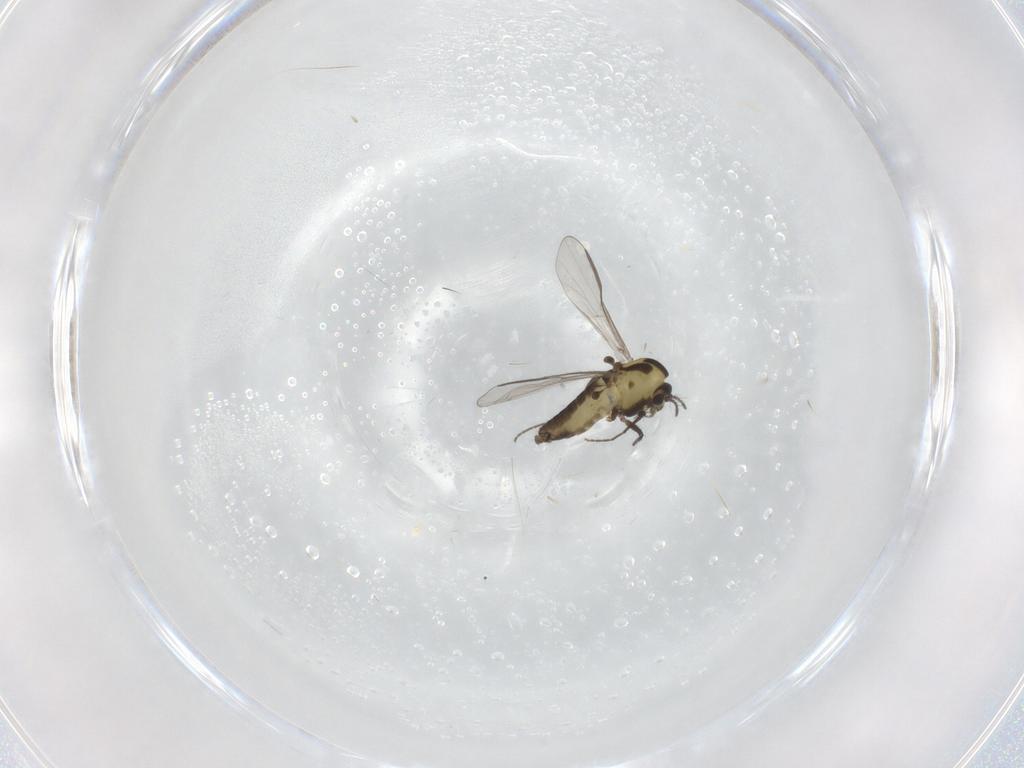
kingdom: Animalia
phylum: Arthropoda
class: Insecta
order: Diptera
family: Chironomidae
